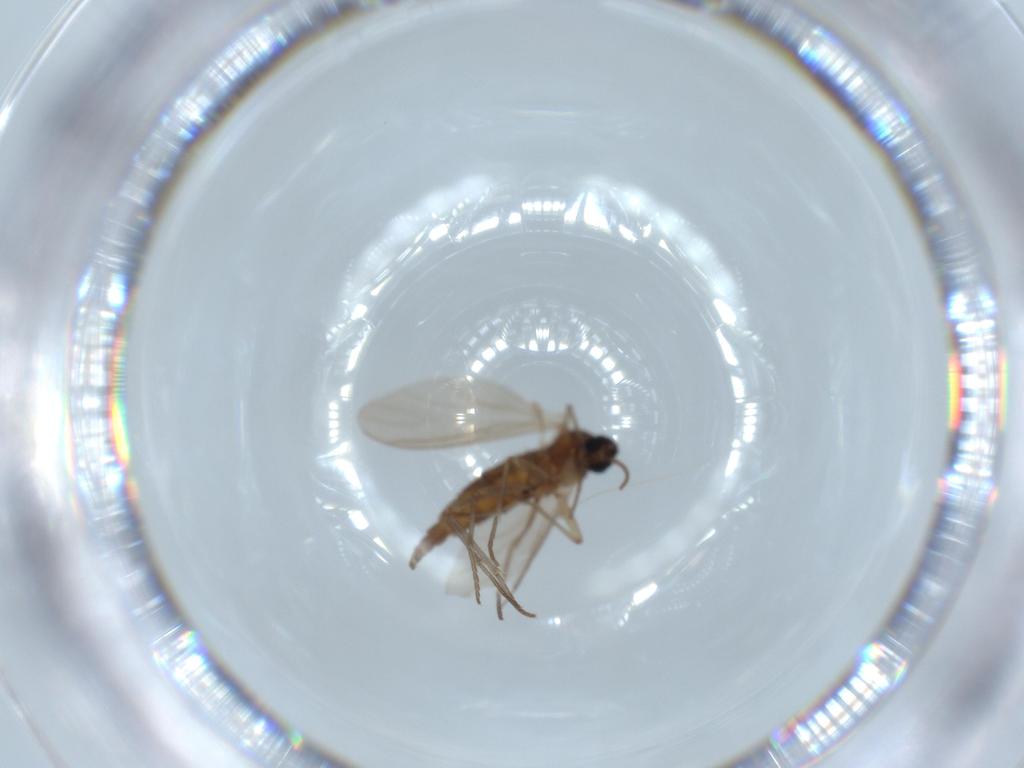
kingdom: Animalia
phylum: Arthropoda
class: Insecta
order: Diptera
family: Sciaridae
